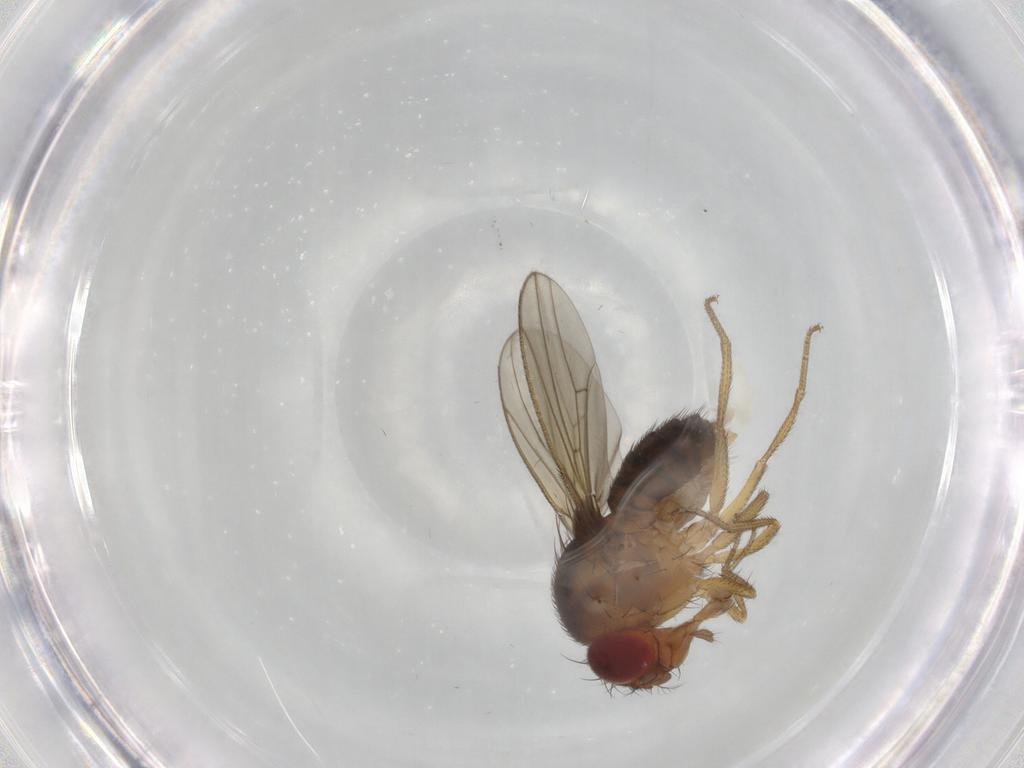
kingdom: Animalia
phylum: Arthropoda
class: Insecta
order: Diptera
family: Drosophilidae
